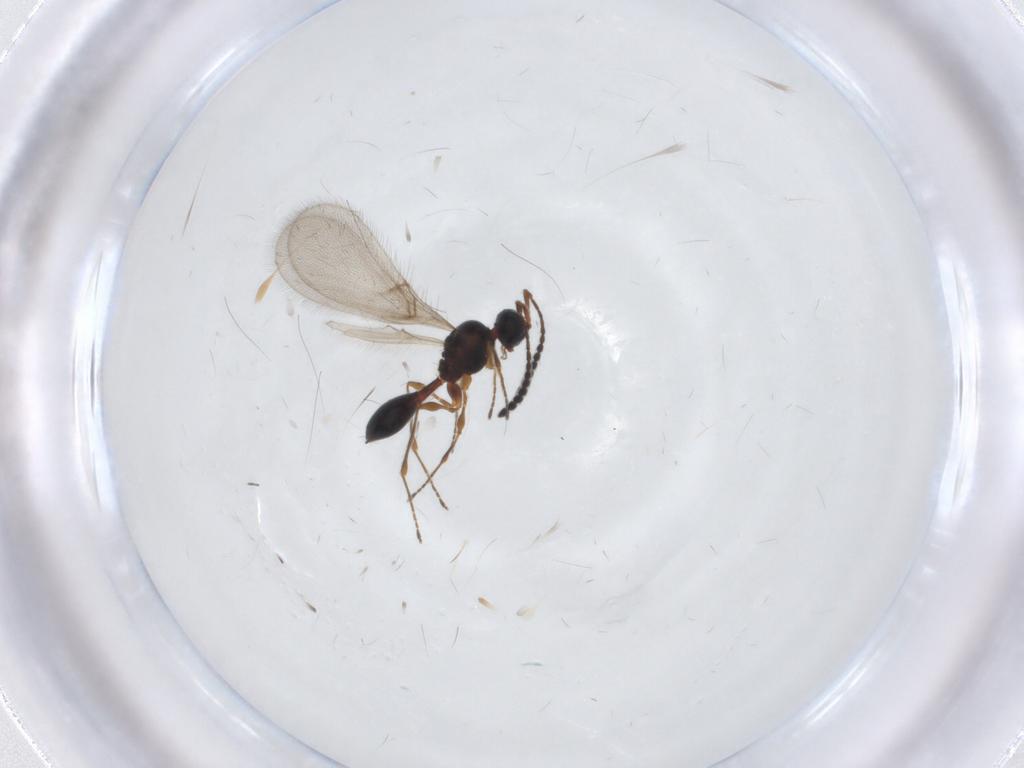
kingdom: Animalia
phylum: Arthropoda
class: Insecta
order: Hymenoptera
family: Diapriidae
